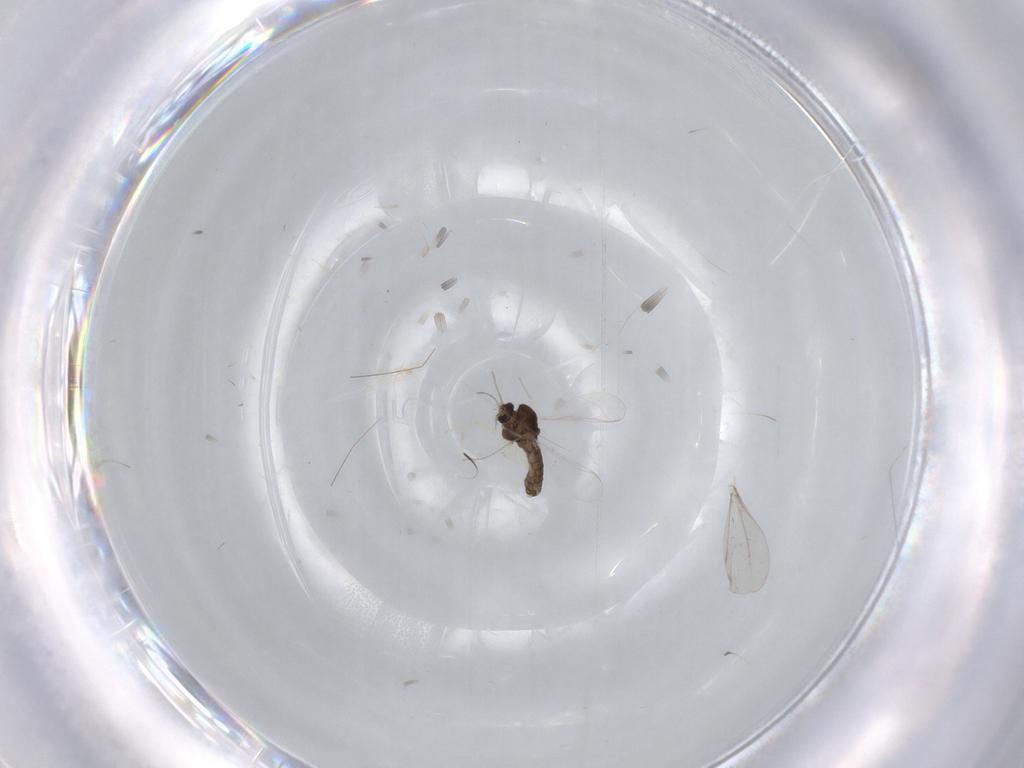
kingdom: Animalia
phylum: Arthropoda
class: Insecta
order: Diptera
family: Chironomidae
